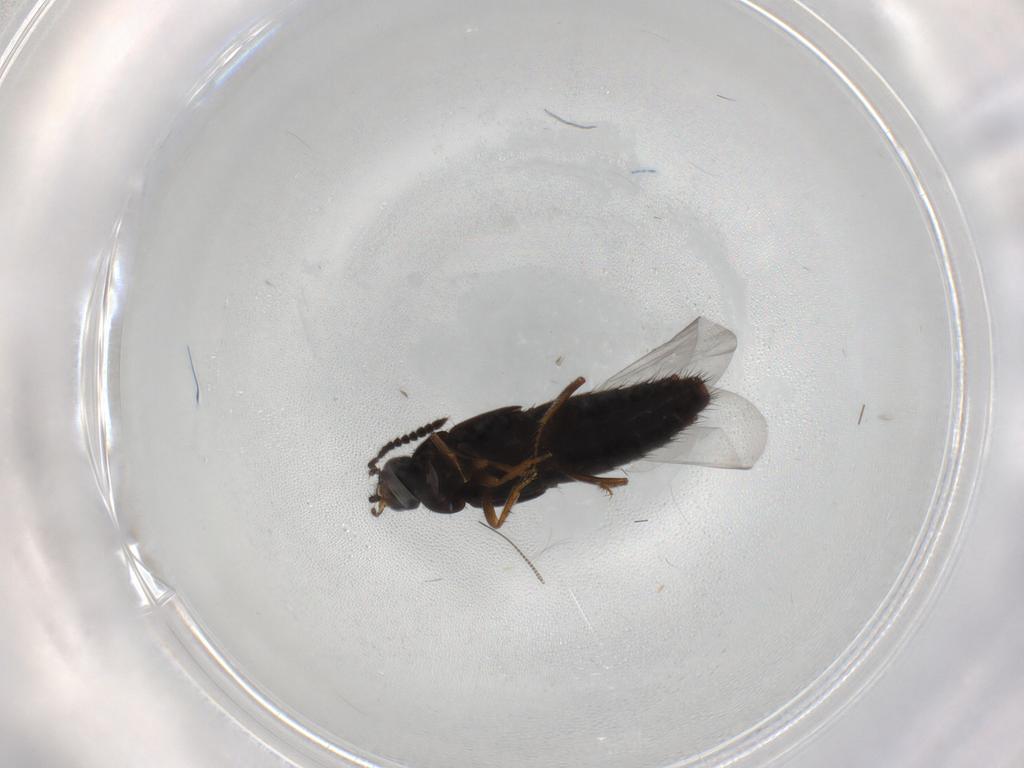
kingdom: Animalia
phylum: Arthropoda
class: Insecta
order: Coleoptera
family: Staphylinidae
